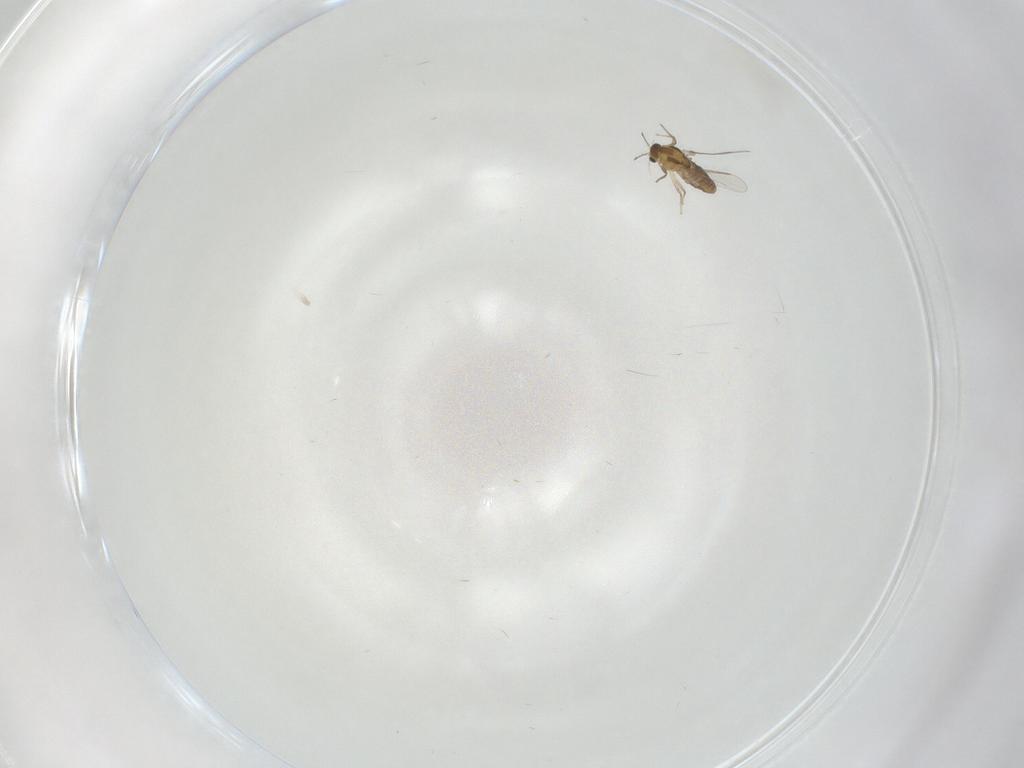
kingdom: Animalia
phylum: Arthropoda
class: Insecta
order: Diptera
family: Chironomidae
